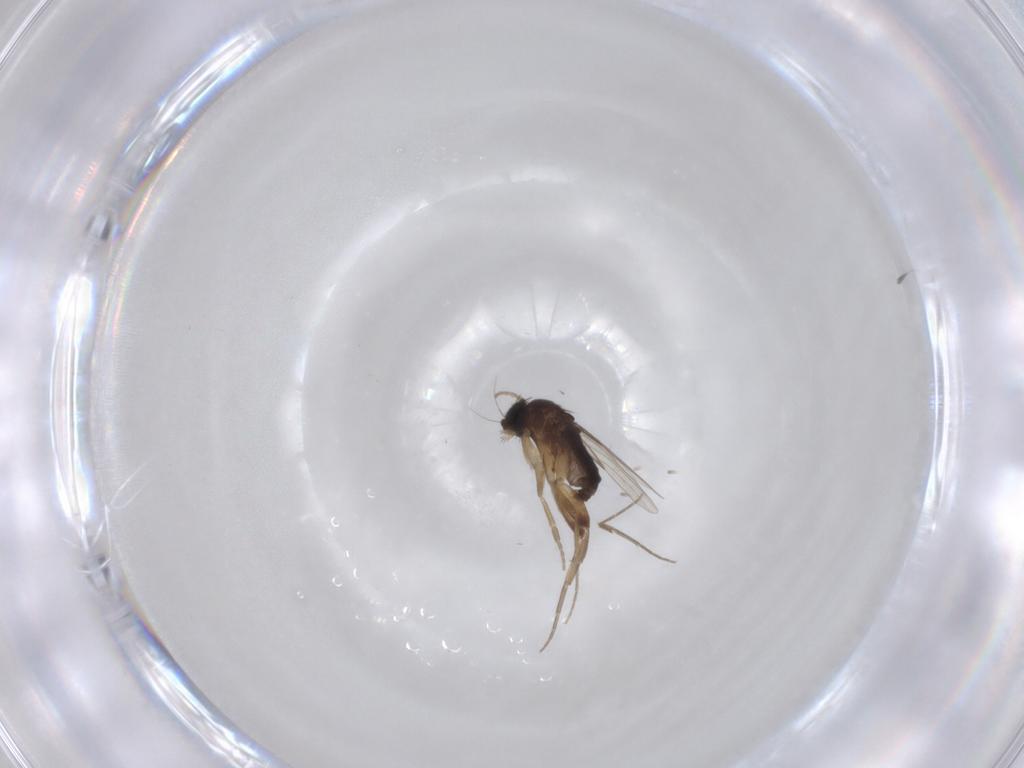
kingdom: Animalia
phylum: Arthropoda
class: Insecta
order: Diptera
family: Phoridae
